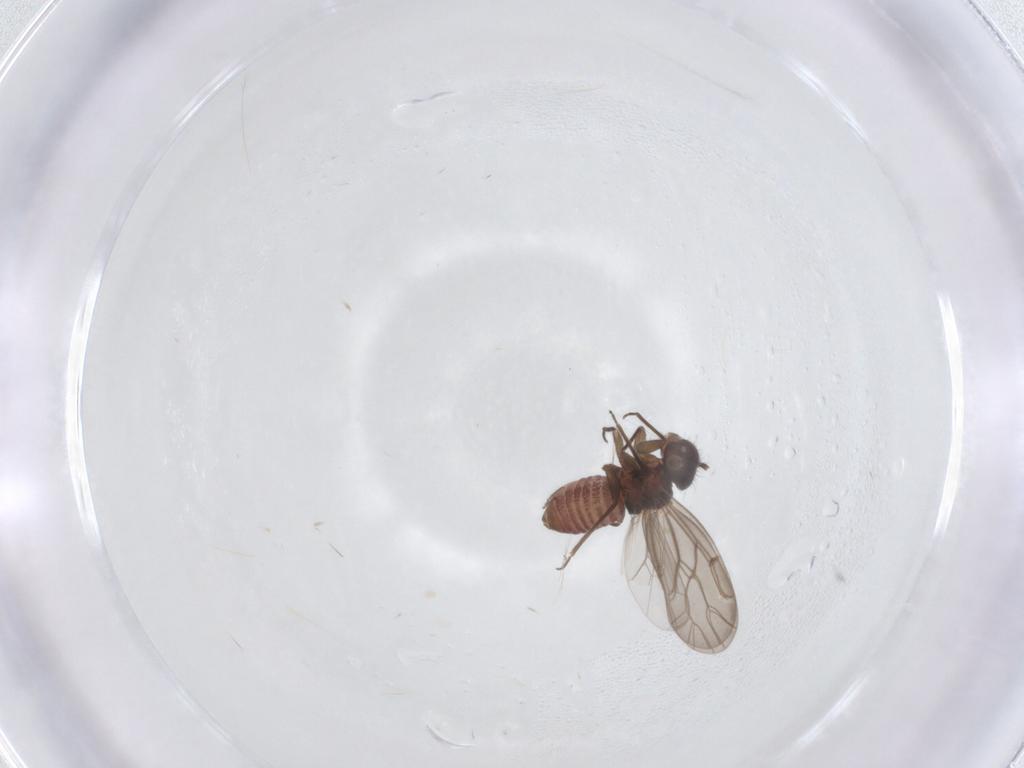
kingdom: Animalia
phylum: Arthropoda
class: Insecta
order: Psocodea
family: Ectopsocidae
